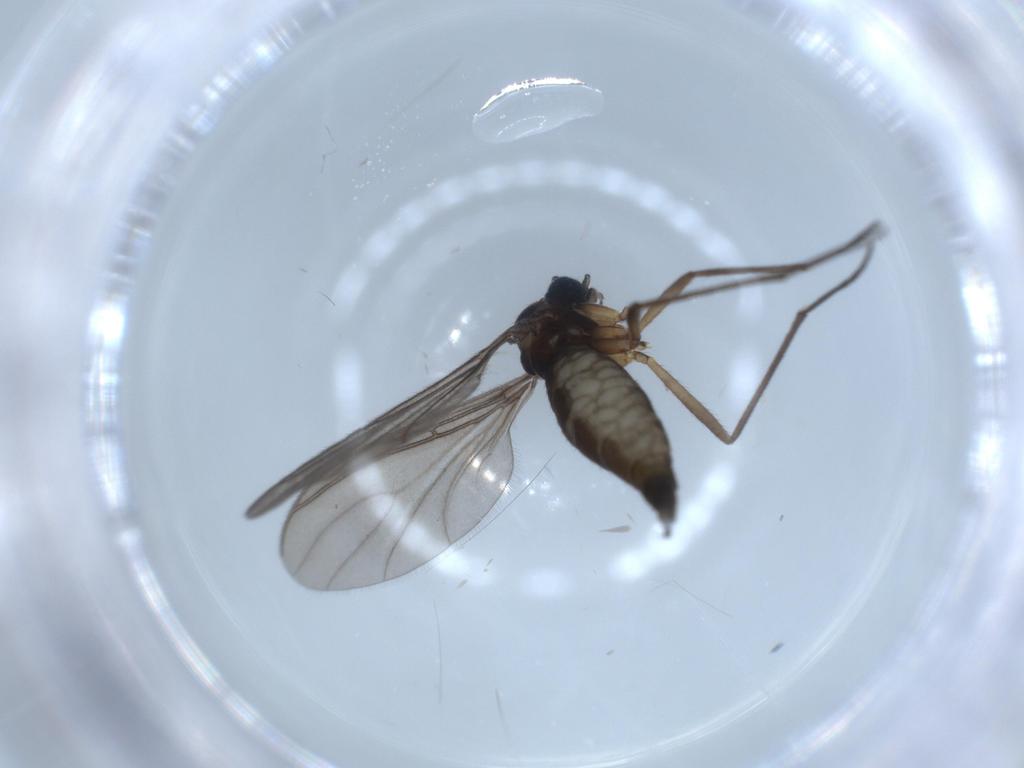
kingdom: Animalia
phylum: Arthropoda
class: Insecta
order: Diptera
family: Sciaridae
